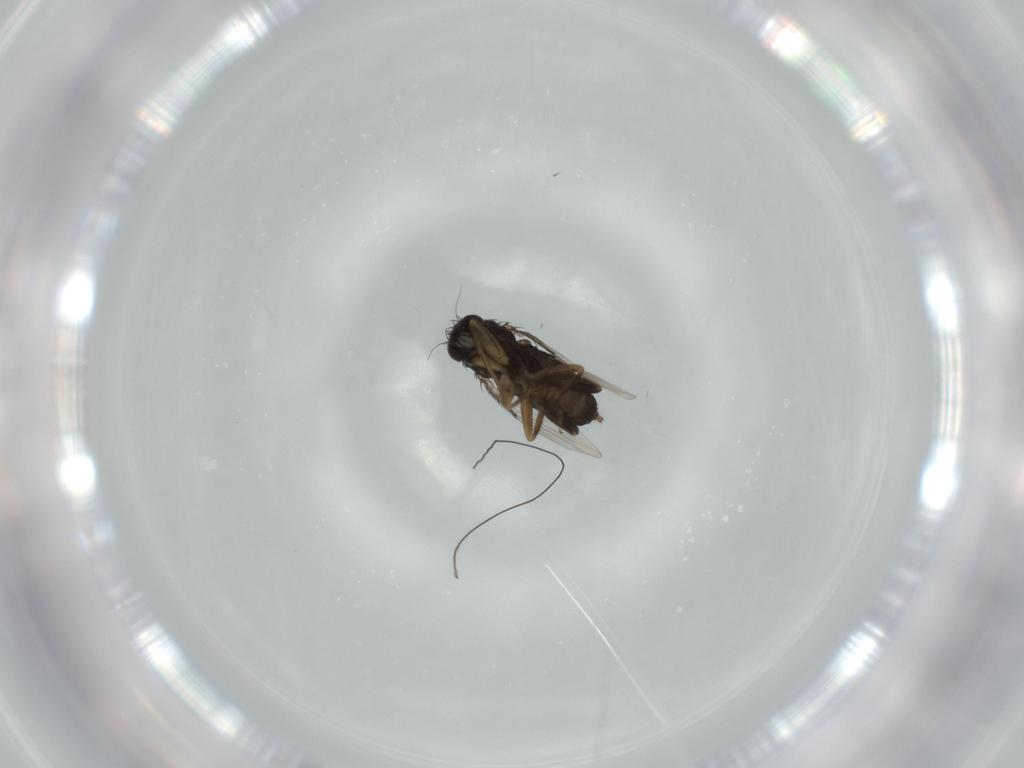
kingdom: Animalia
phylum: Arthropoda
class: Insecta
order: Diptera
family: Phoridae
